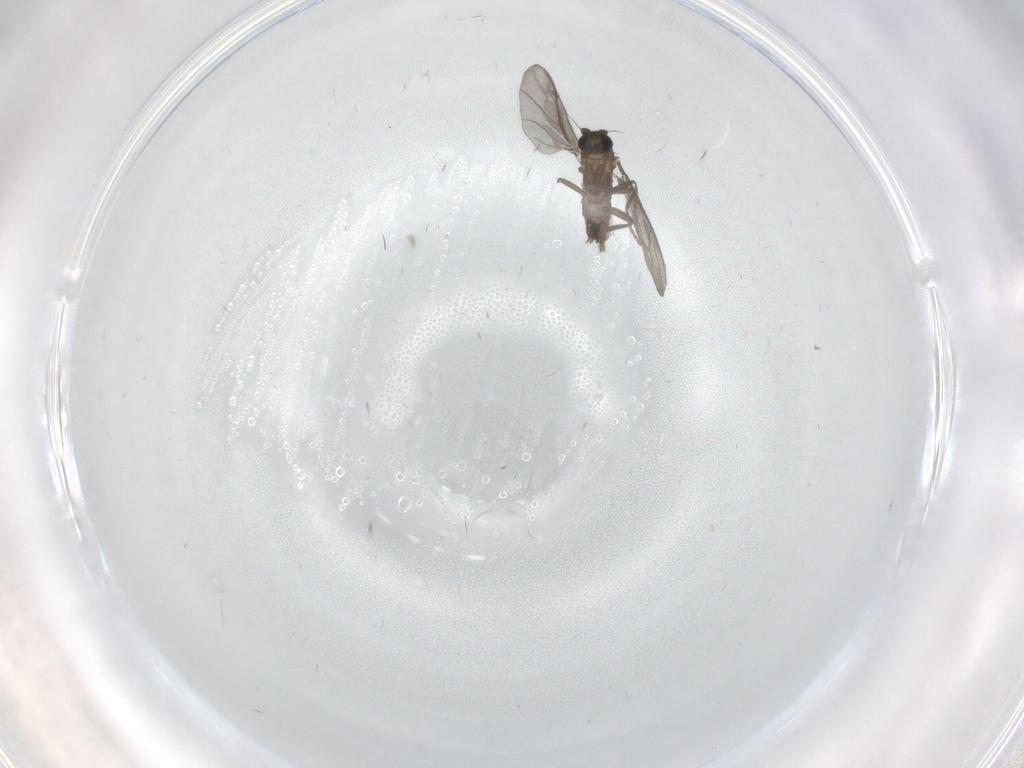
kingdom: Animalia
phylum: Arthropoda
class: Insecta
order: Diptera
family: Phoridae
